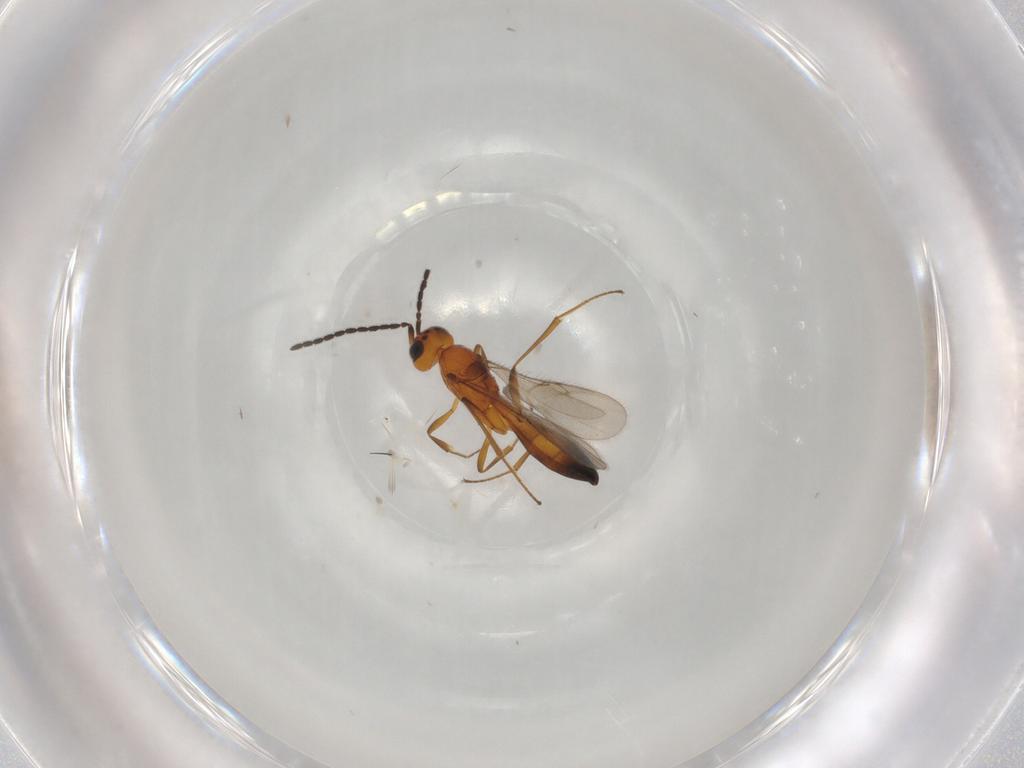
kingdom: Animalia
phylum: Arthropoda
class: Insecta
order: Hymenoptera
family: Scelionidae
